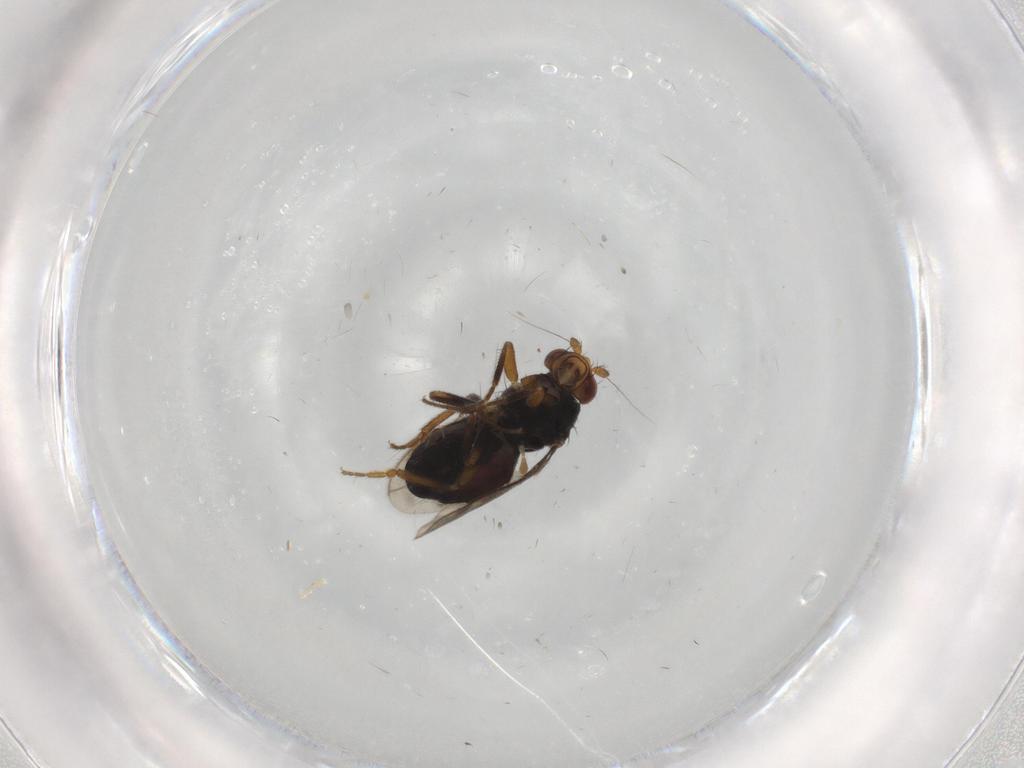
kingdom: Animalia
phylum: Arthropoda
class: Insecta
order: Diptera
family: Sphaeroceridae
